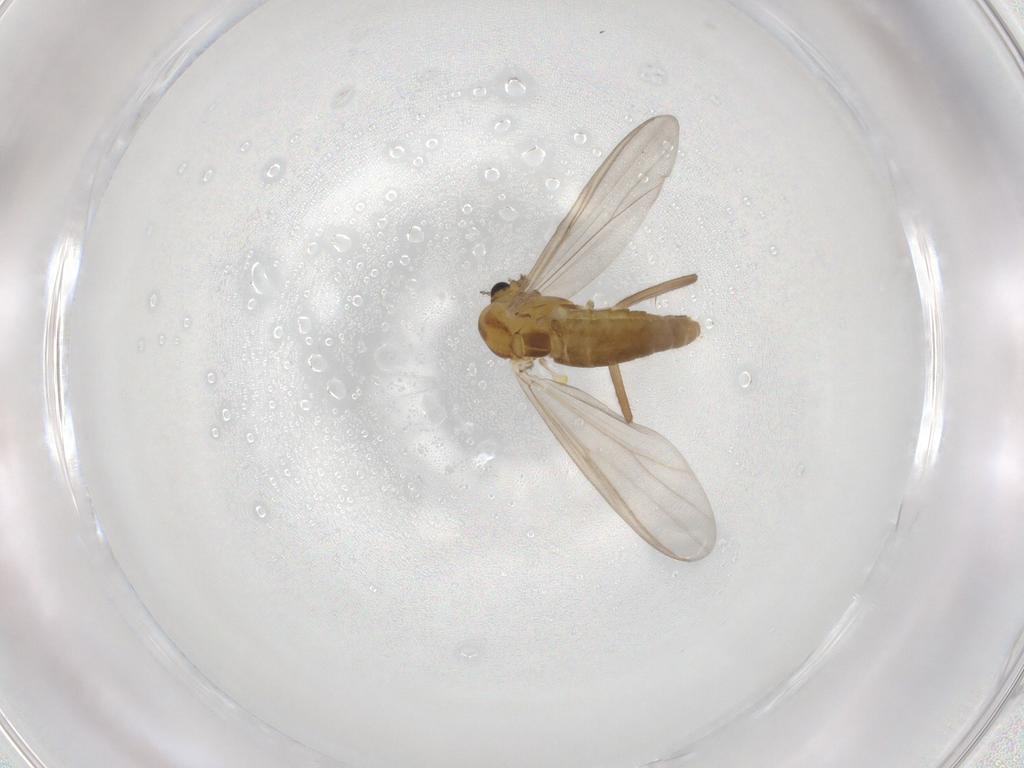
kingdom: Animalia
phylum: Arthropoda
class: Insecta
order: Diptera
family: Chironomidae
